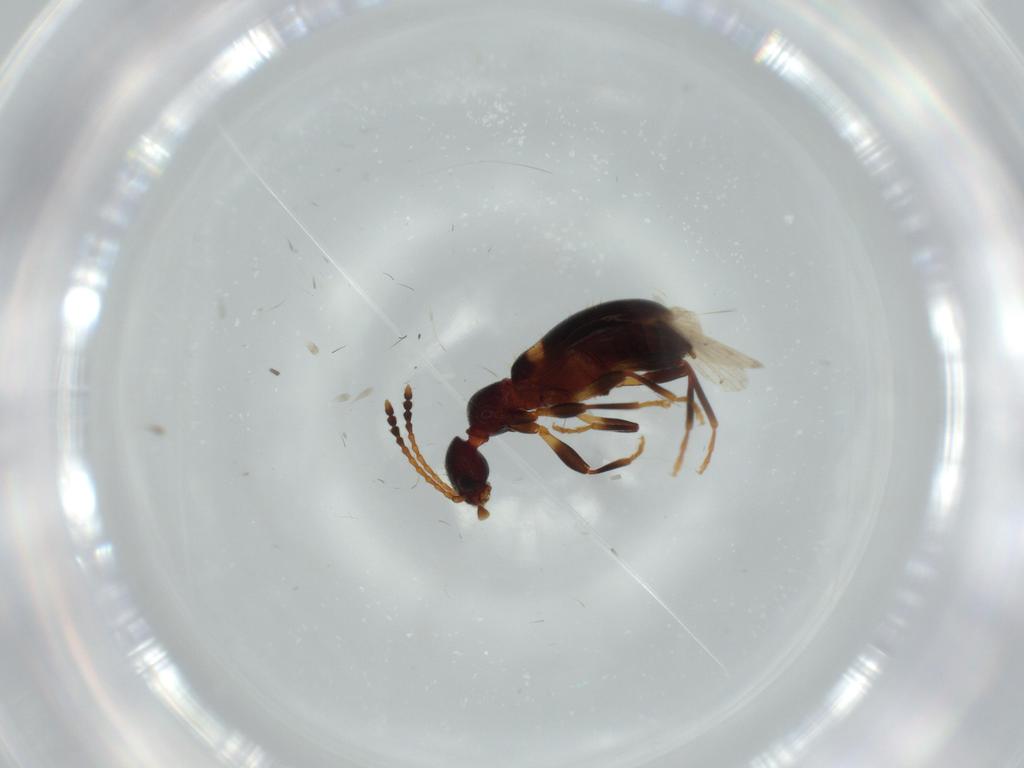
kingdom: Animalia
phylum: Arthropoda
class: Insecta
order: Coleoptera
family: Anthicidae
